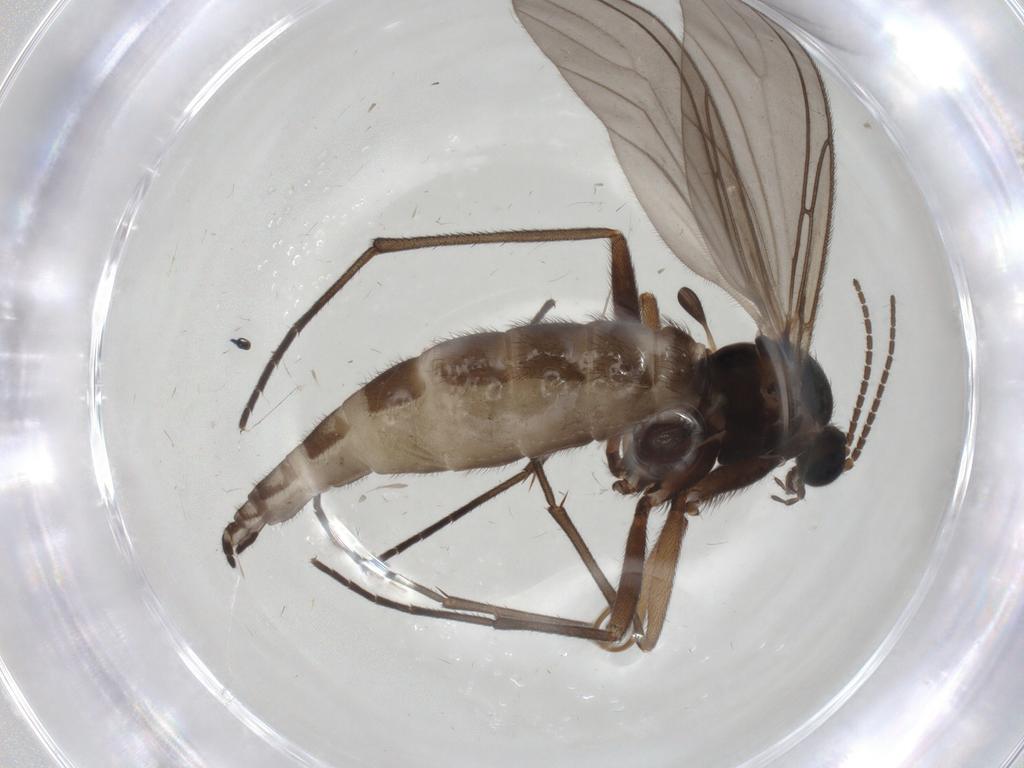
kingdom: Animalia
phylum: Arthropoda
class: Insecta
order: Diptera
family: Sciaridae
